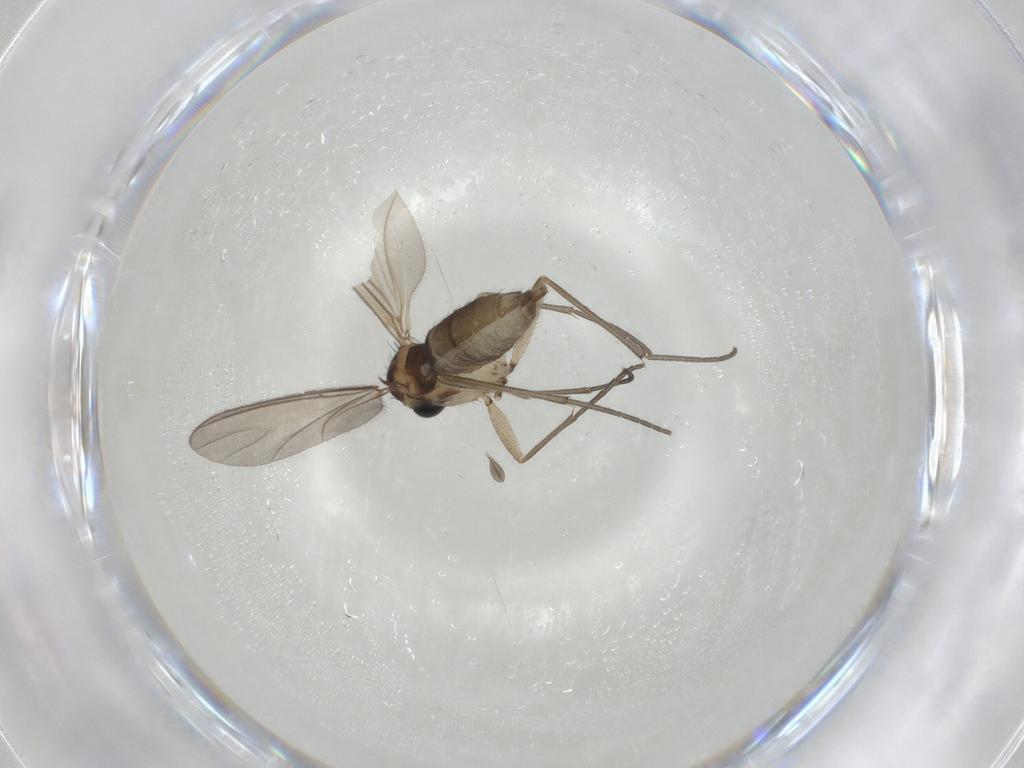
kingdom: Animalia
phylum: Arthropoda
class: Insecta
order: Diptera
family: Sciaridae
